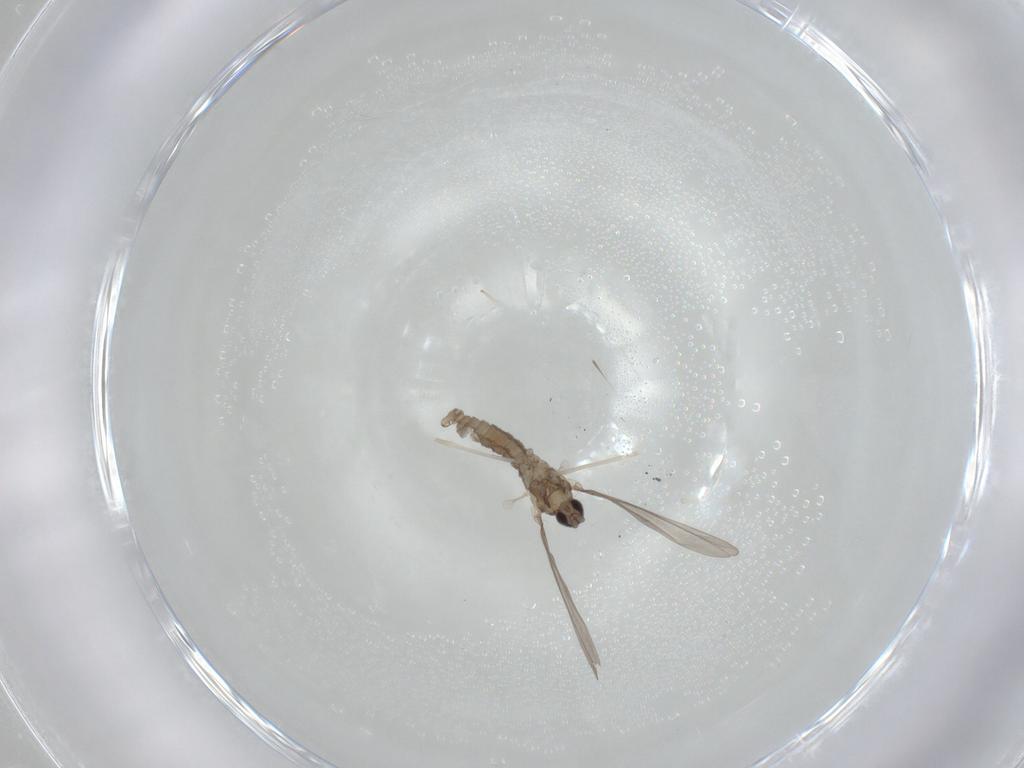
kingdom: Animalia
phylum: Arthropoda
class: Insecta
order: Diptera
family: Cecidomyiidae
